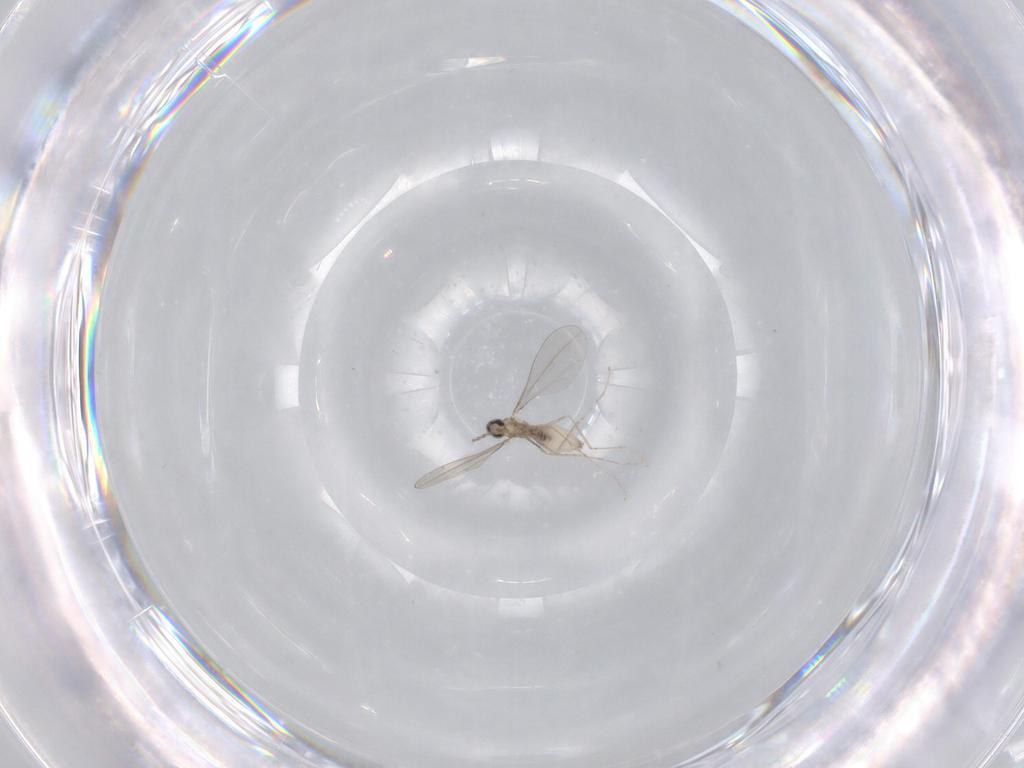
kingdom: Animalia
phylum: Arthropoda
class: Insecta
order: Diptera
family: Cecidomyiidae
